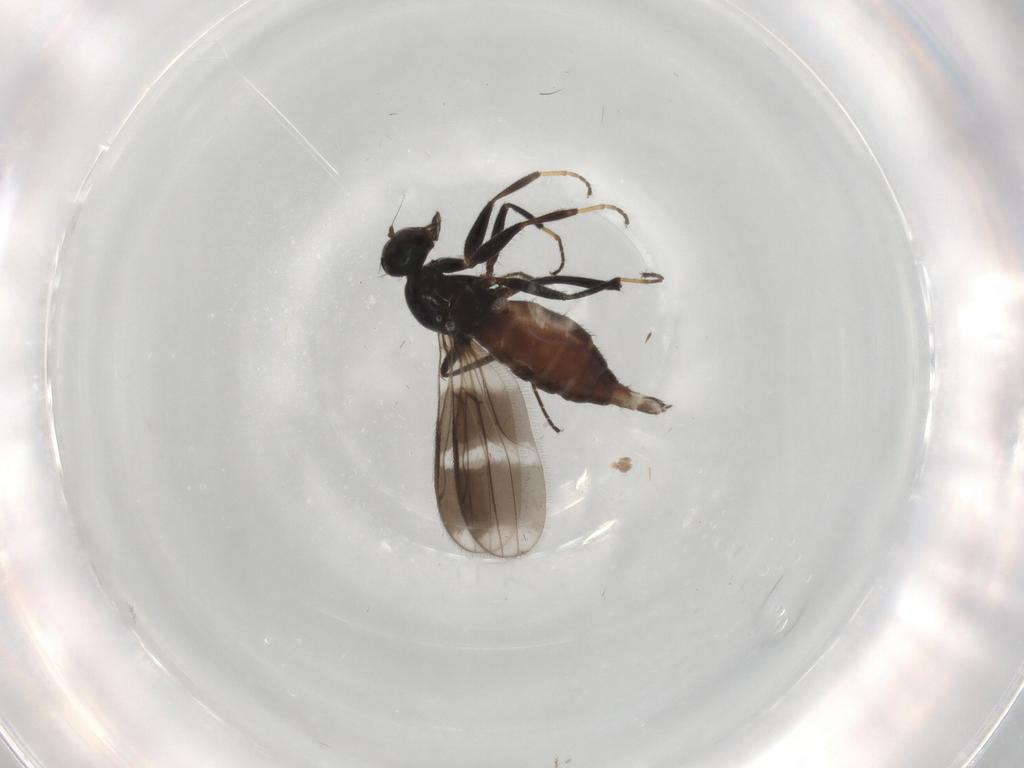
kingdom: Animalia
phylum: Arthropoda
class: Insecta
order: Diptera
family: Hybotidae
